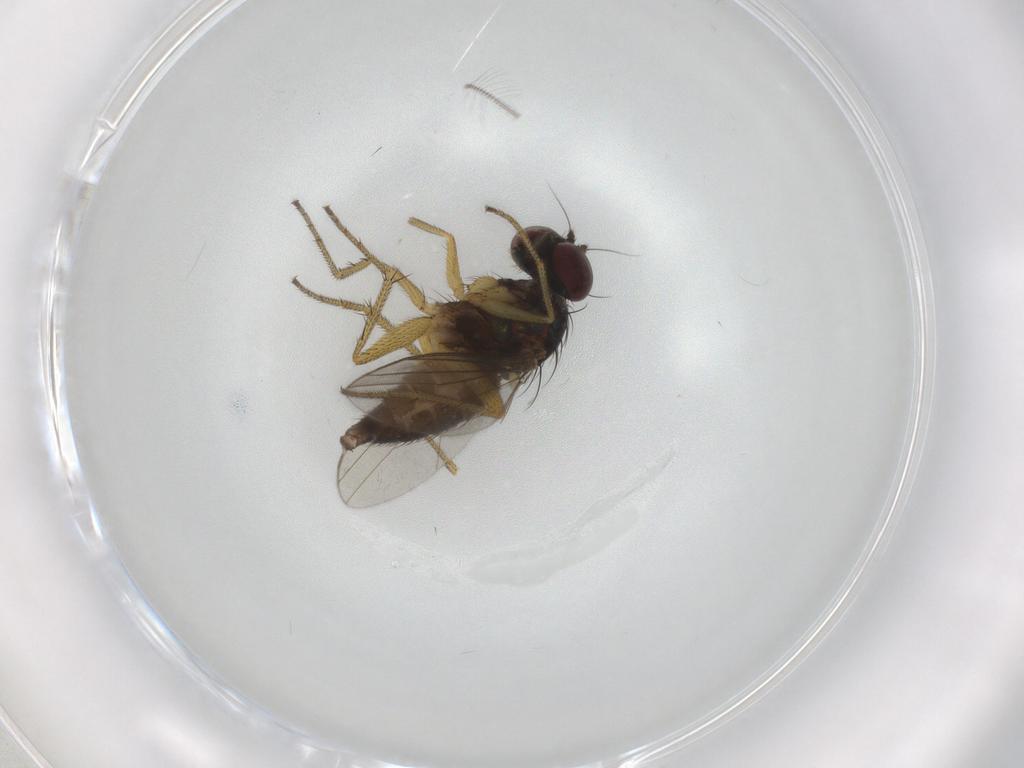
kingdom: Animalia
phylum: Arthropoda
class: Insecta
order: Diptera
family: Dolichopodidae
